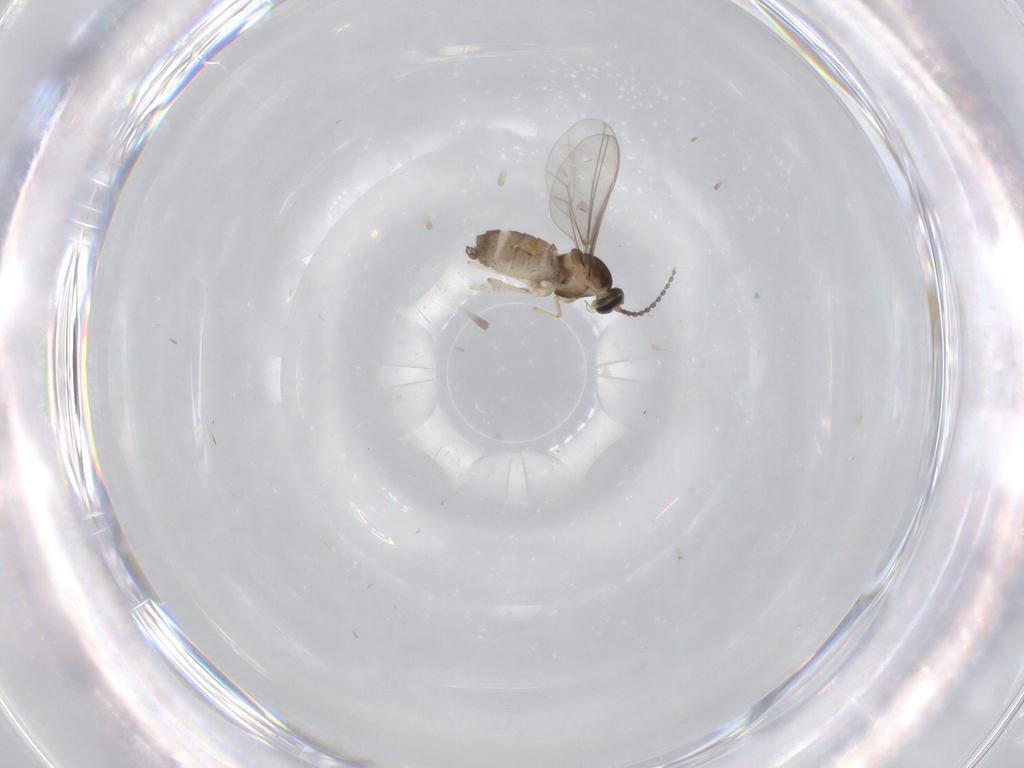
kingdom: Animalia
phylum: Arthropoda
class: Insecta
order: Diptera
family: Cecidomyiidae
